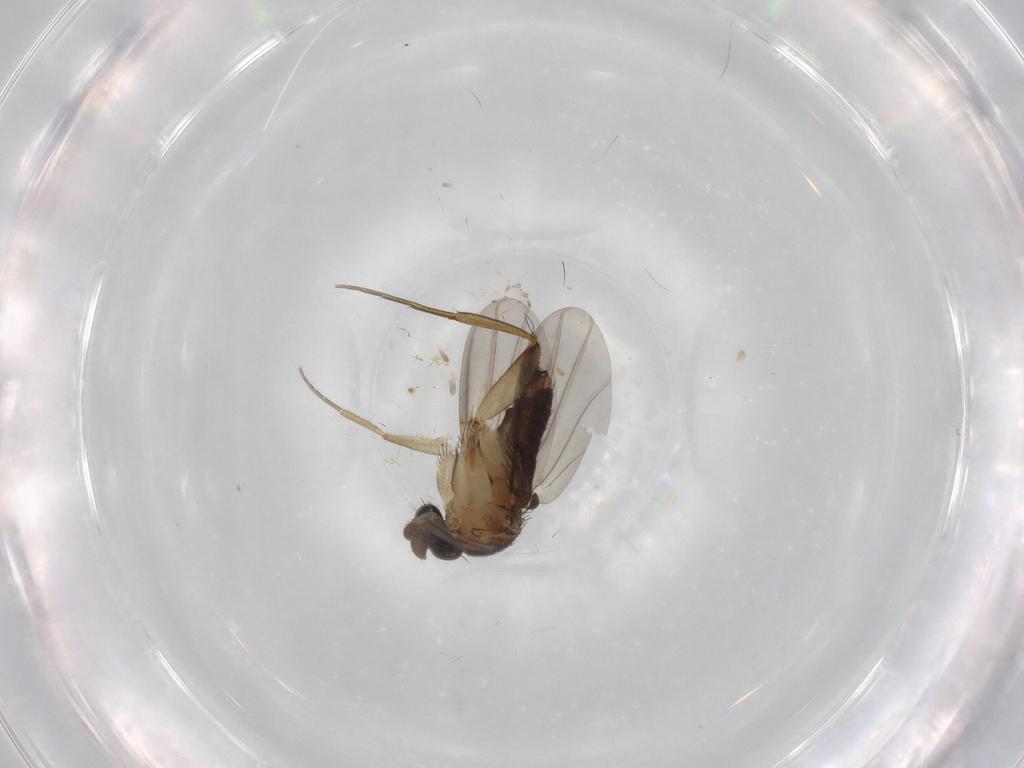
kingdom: Animalia
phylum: Arthropoda
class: Insecta
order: Diptera
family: Phoridae
